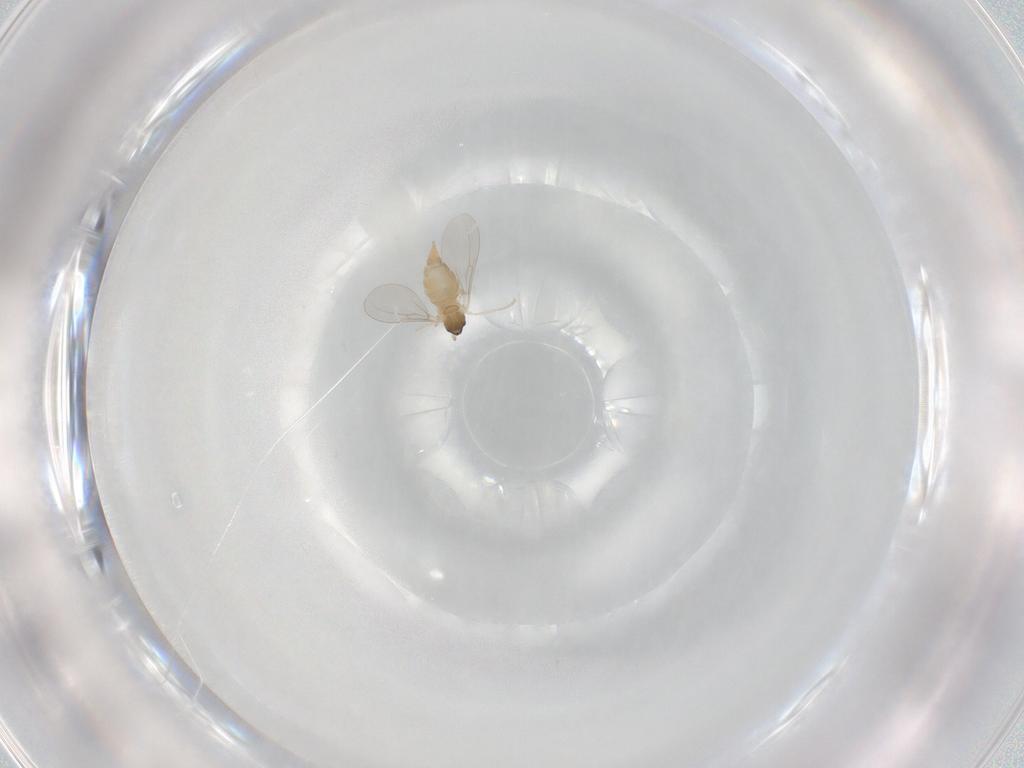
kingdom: Animalia
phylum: Arthropoda
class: Insecta
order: Diptera
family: Cecidomyiidae
